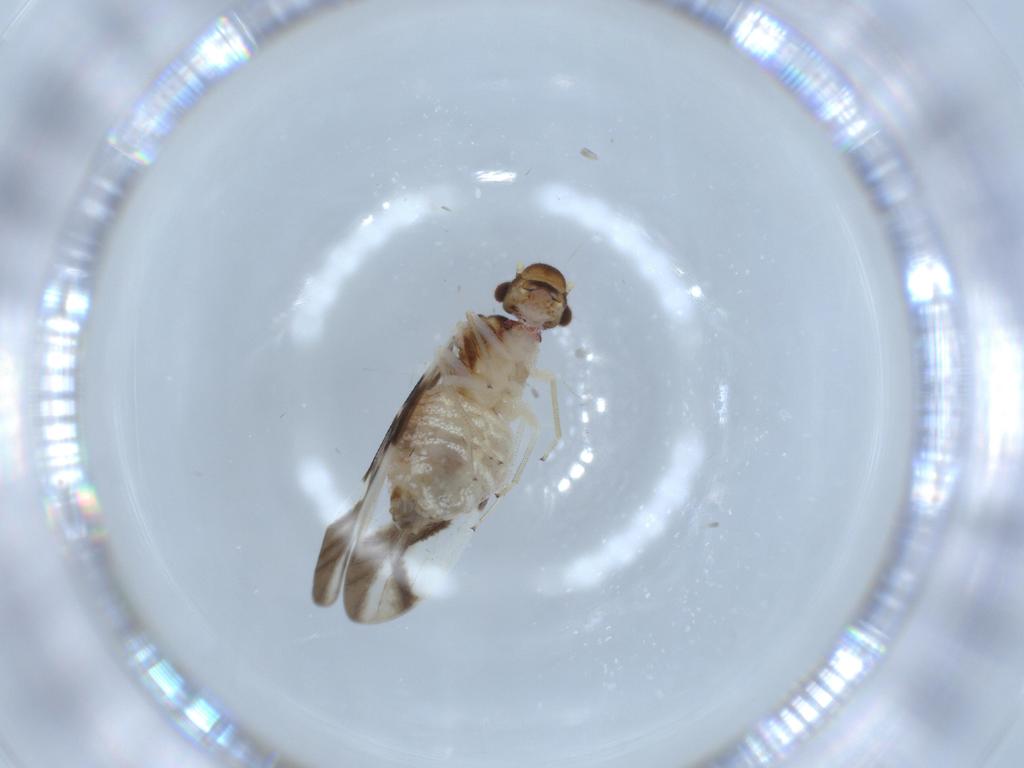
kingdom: Animalia
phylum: Arthropoda
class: Insecta
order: Psocodea
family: Caeciliusidae
